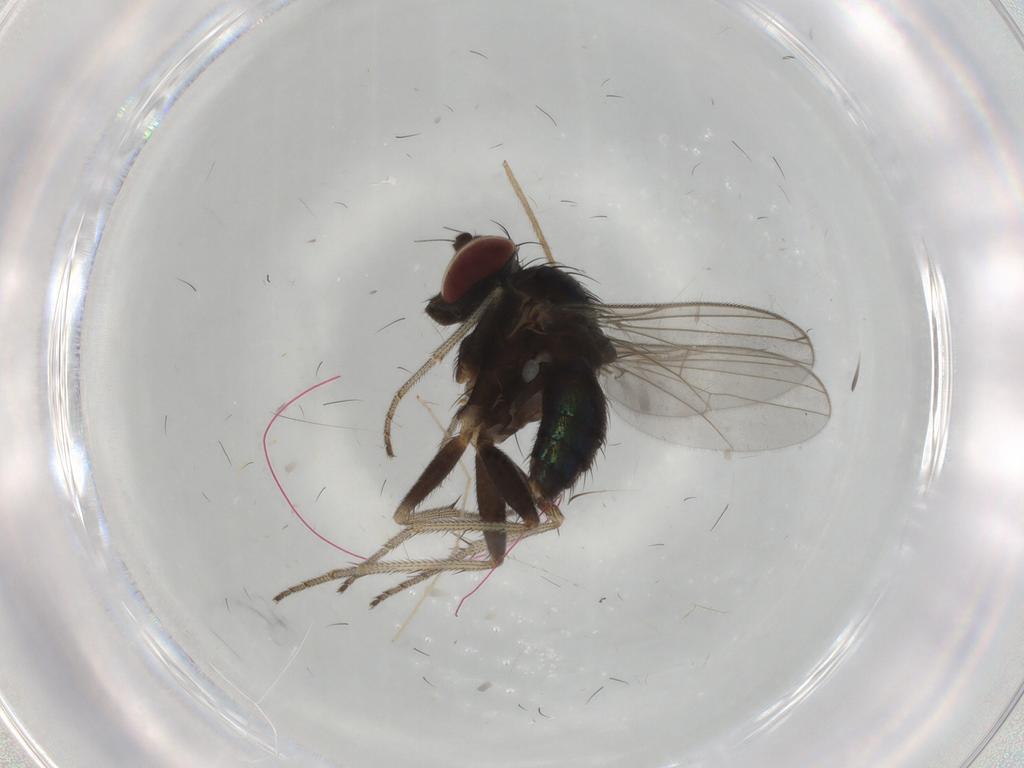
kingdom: Animalia
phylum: Arthropoda
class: Insecta
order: Diptera
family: Dolichopodidae
